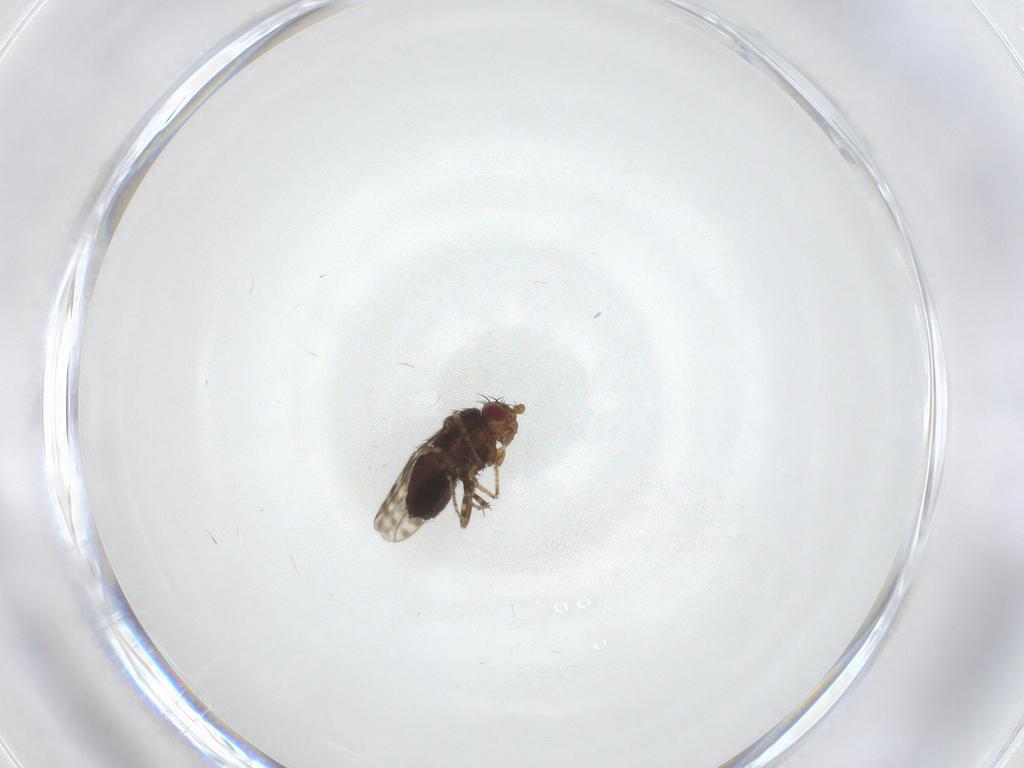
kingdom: Animalia
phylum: Arthropoda
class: Insecta
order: Diptera
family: Sphaeroceridae
